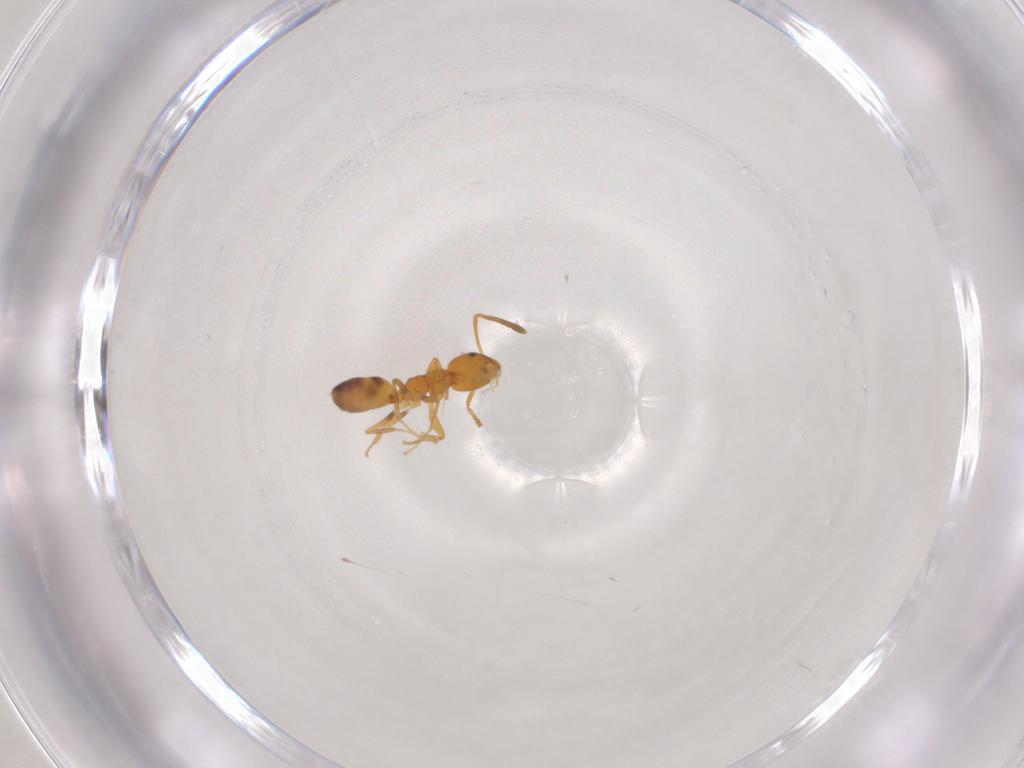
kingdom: Animalia
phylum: Arthropoda
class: Insecta
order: Hymenoptera
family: Formicidae
